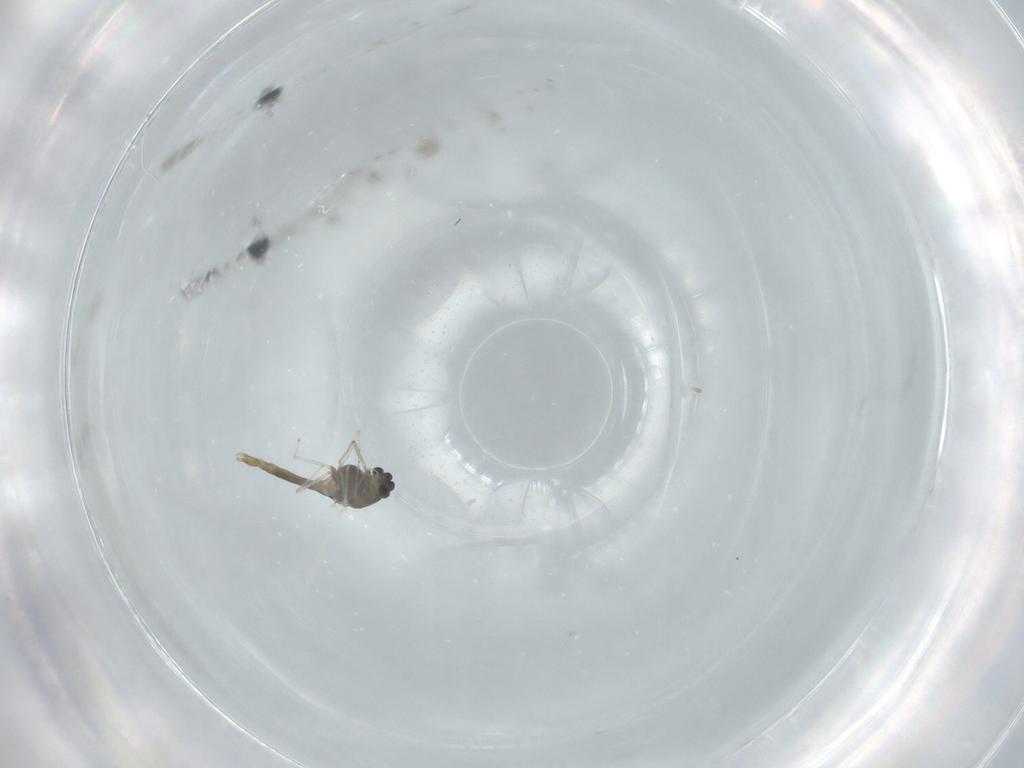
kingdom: Animalia
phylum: Arthropoda
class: Insecta
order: Diptera
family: Chironomidae
